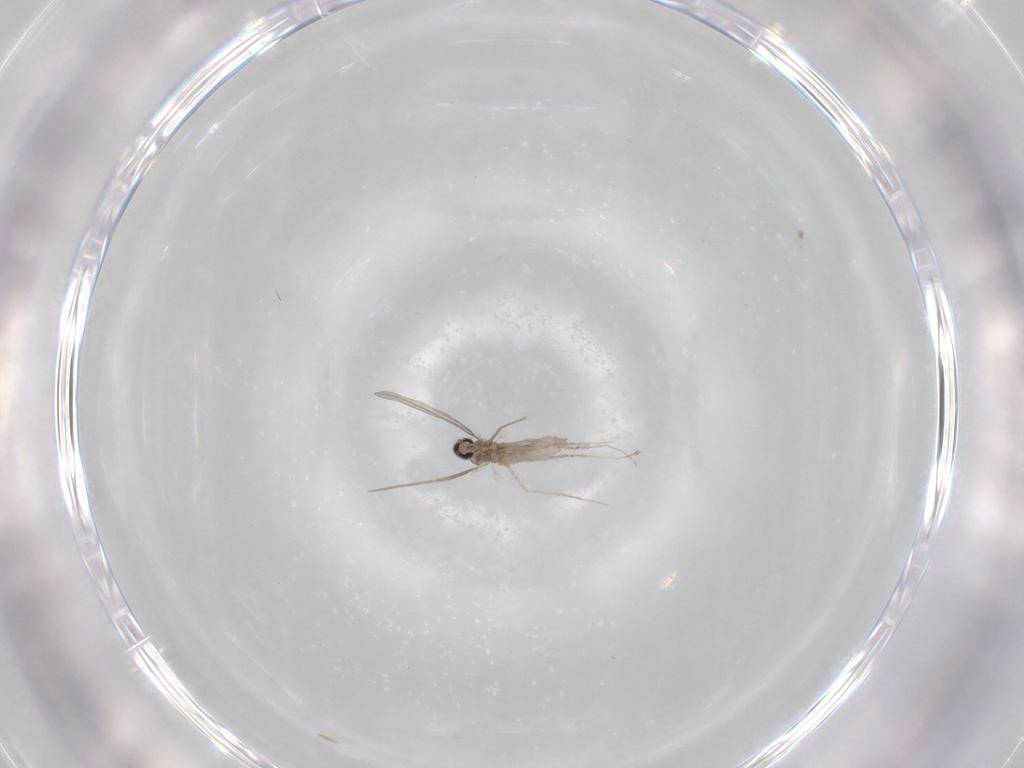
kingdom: Animalia
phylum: Arthropoda
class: Insecta
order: Diptera
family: Cecidomyiidae
